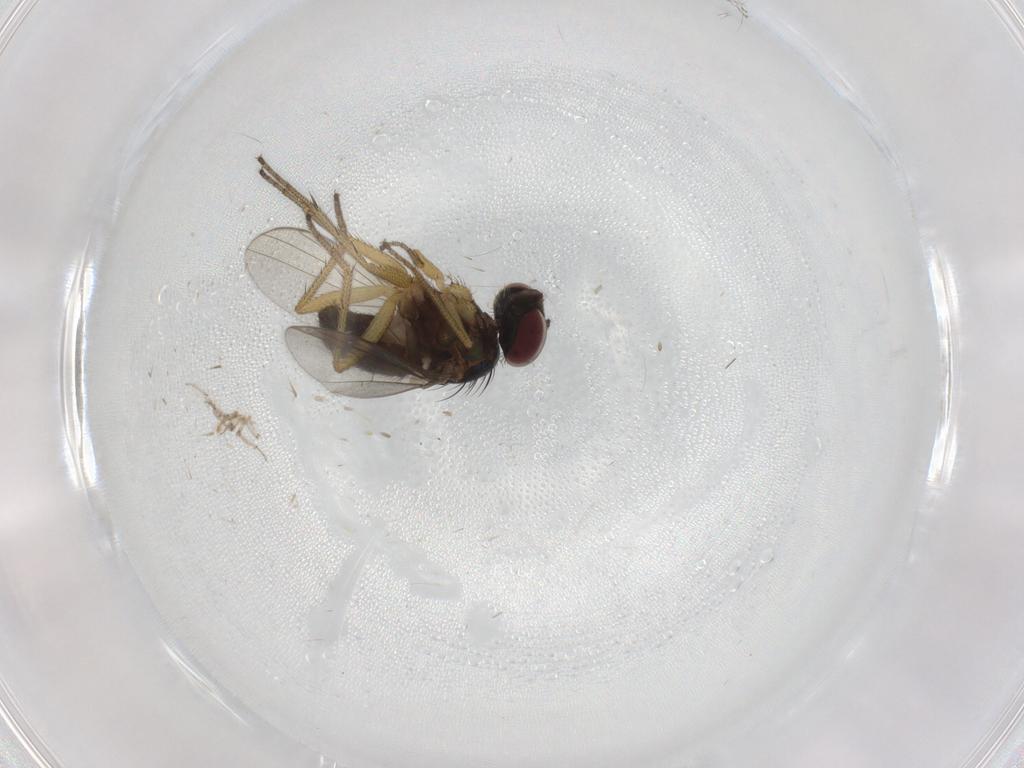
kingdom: Animalia
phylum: Arthropoda
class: Insecta
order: Diptera
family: Dolichopodidae
